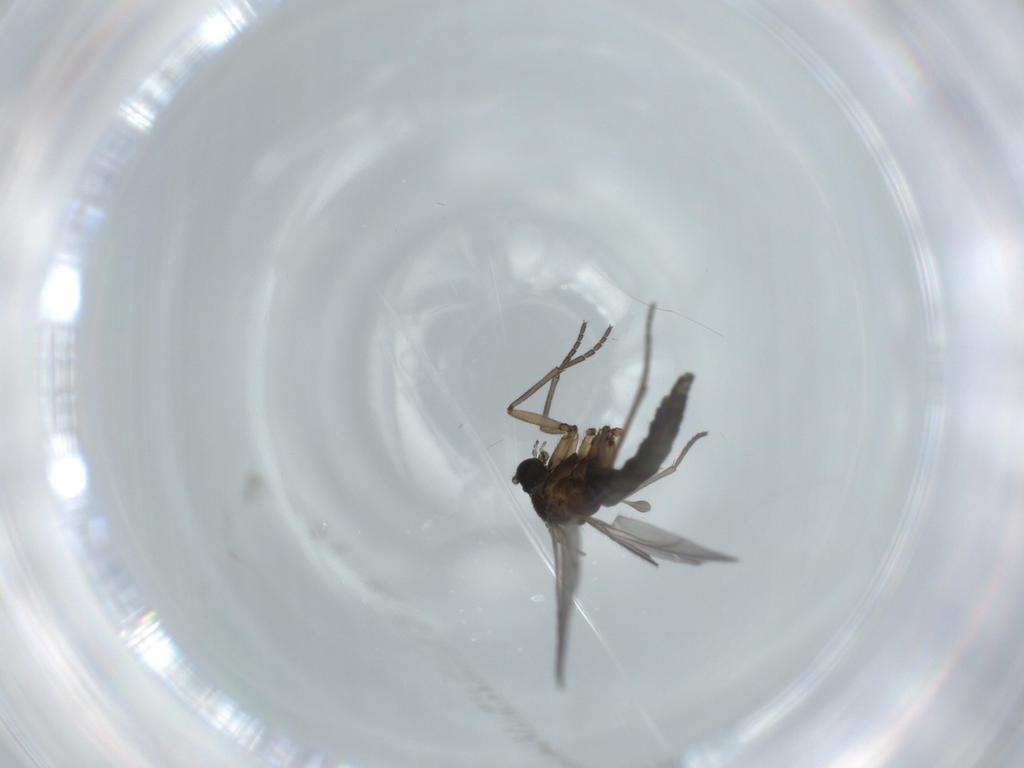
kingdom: Animalia
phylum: Arthropoda
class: Insecta
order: Diptera
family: Sciaridae
